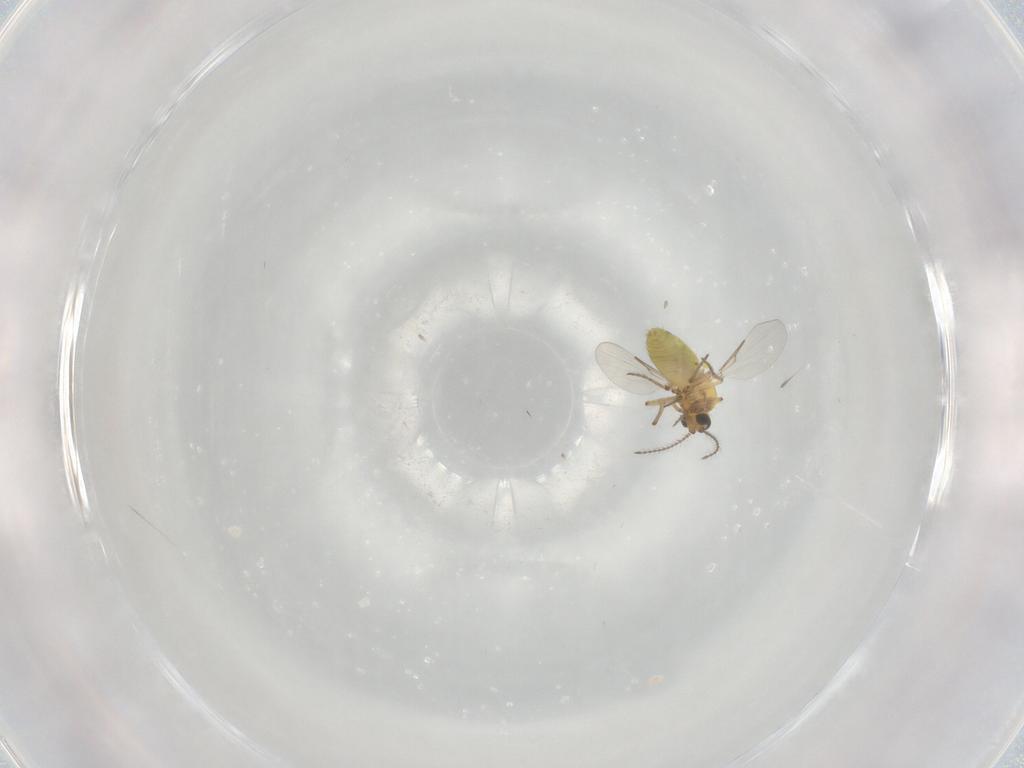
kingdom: Animalia
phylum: Arthropoda
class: Insecta
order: Diptera
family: Ceratopogonidae
